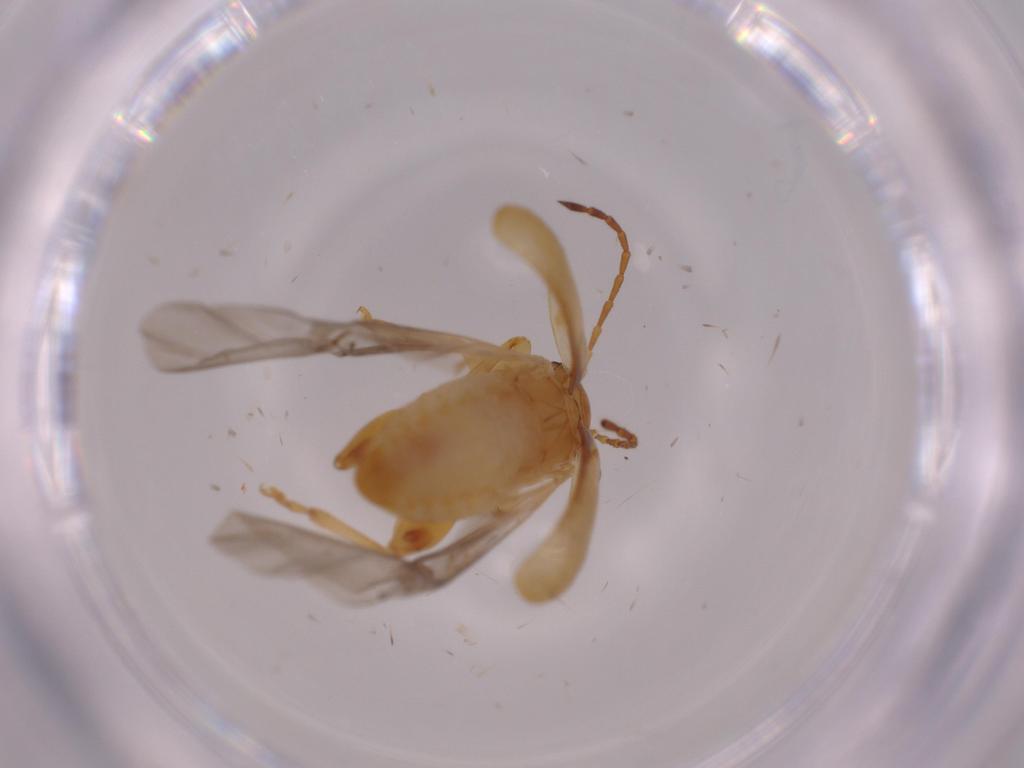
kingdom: Animalia
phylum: Arthropoda
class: Insecta
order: Coleoptera
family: Chrysomelidae
